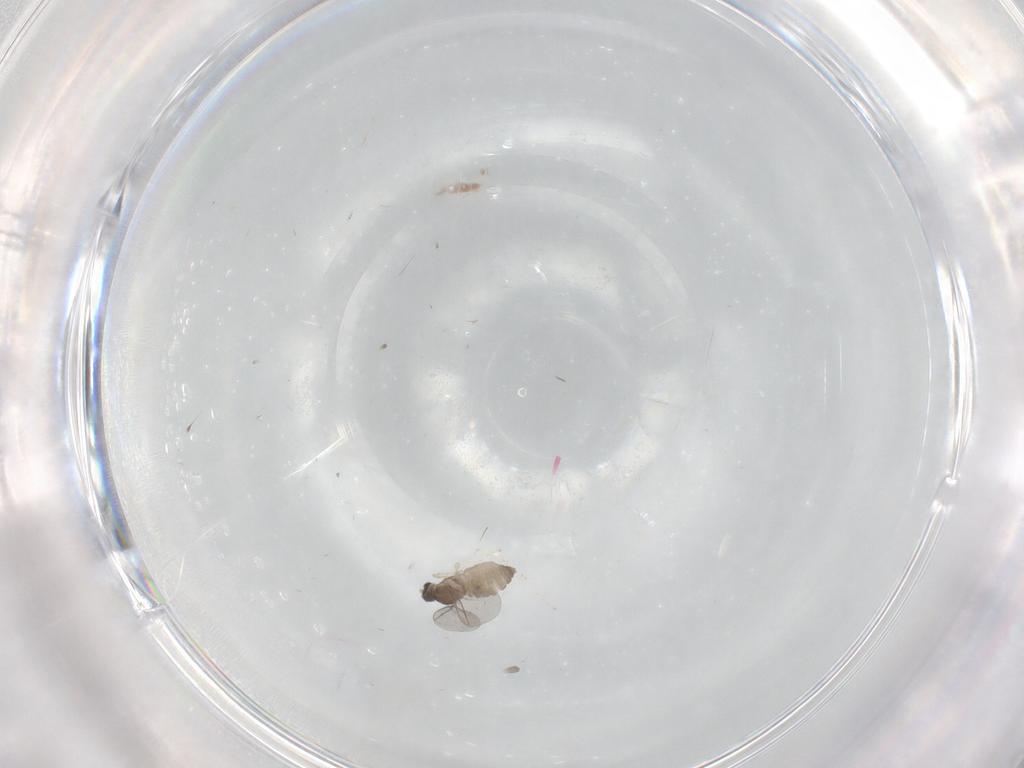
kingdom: Animalia
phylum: Arthropoda
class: Insecta
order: Diptera
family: Cecidomyiidae
